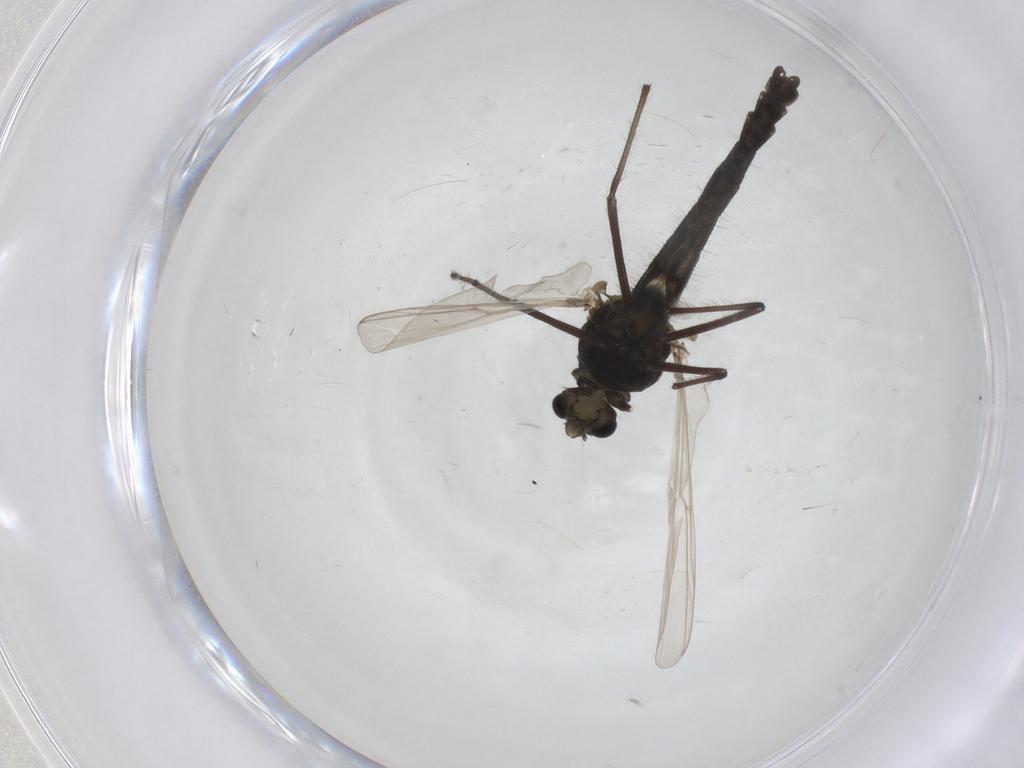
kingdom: Animalia
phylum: Arthropoda
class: Insecta
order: Diptera
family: Chironomidae
